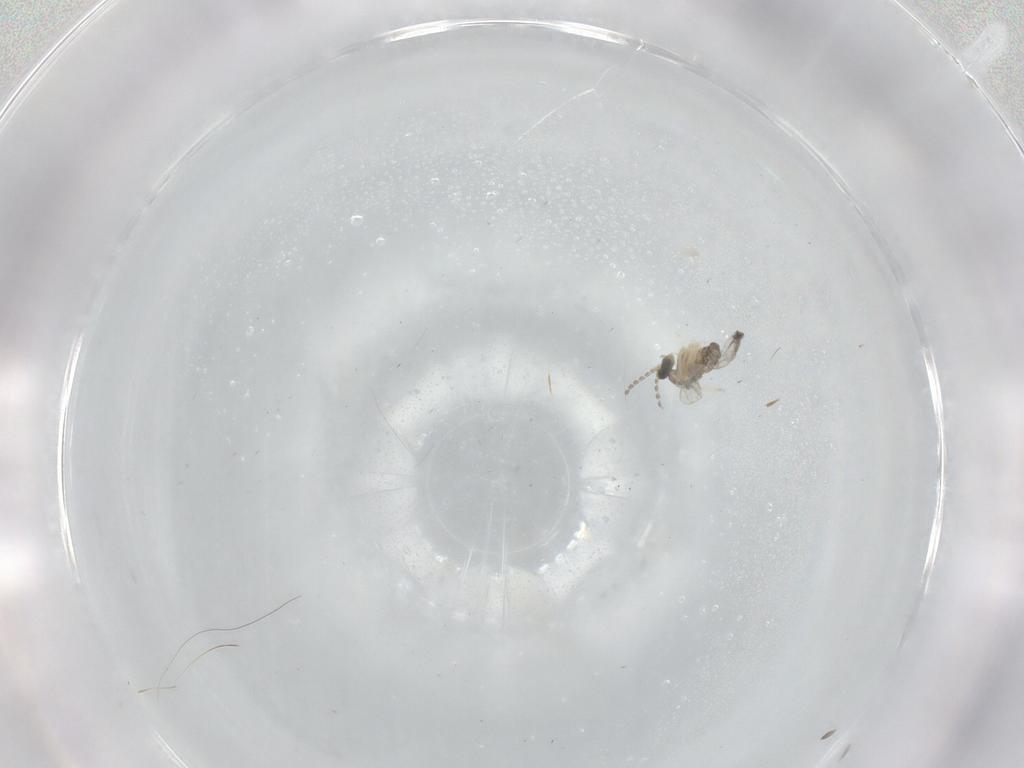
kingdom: Animalia
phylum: Arthropoda
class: Insecta
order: Diptera
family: Cecidomyiidae
